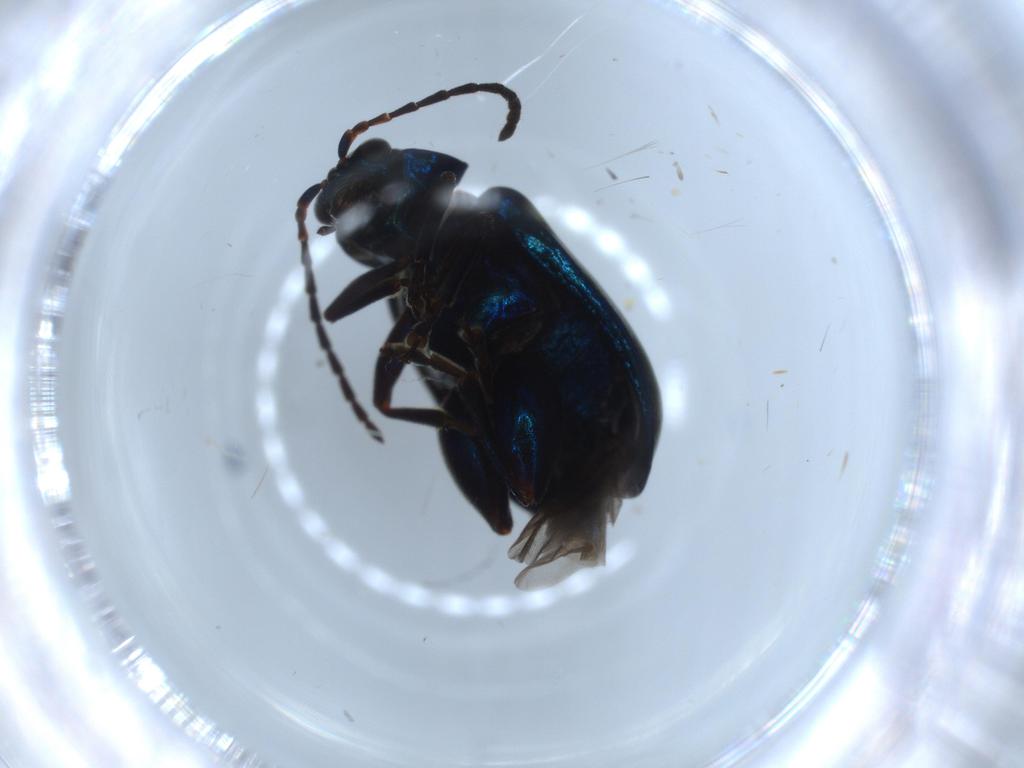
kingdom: Animalia
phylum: Arthropoda
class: Insecta
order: Coleoptera
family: Chrysomelidae
